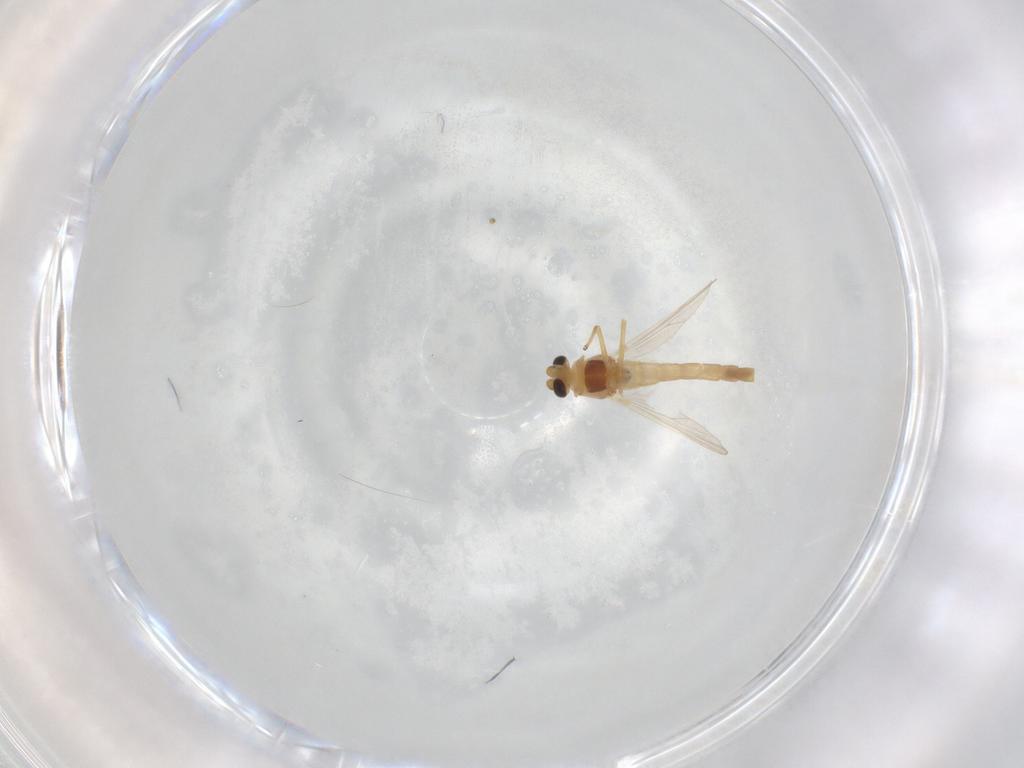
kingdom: Animalia
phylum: Arthropoda
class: Insecta
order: Diptera
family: Chironomidae
